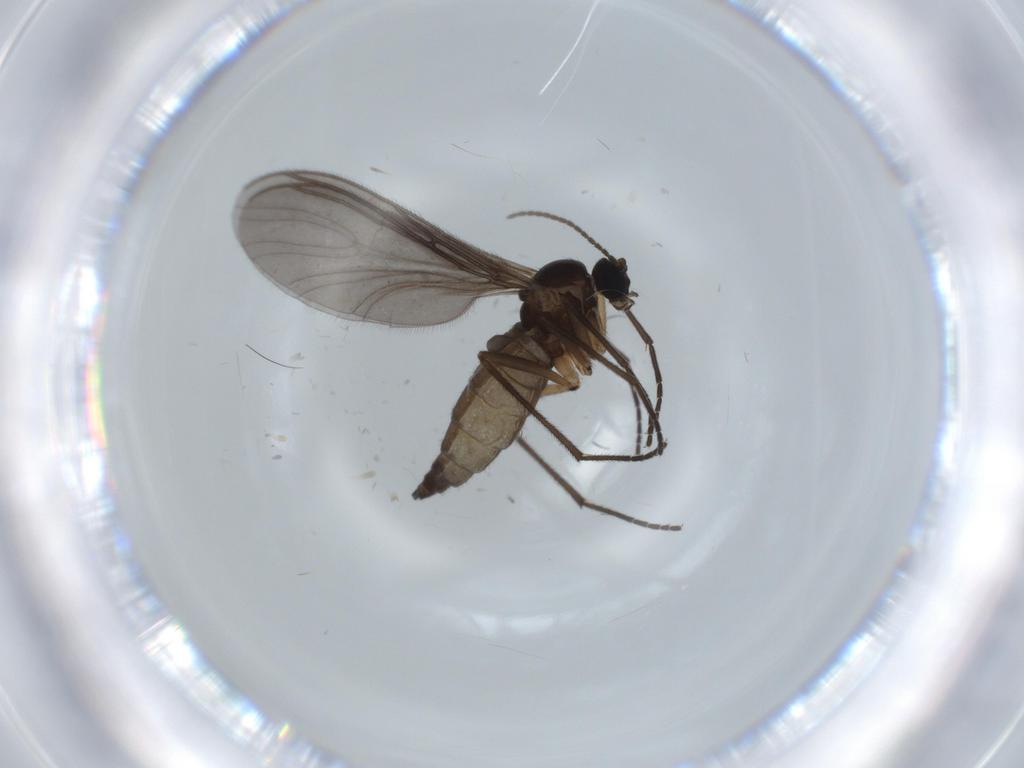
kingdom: Animalia
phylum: Arthropoda
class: Insecta
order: Diptera
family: Sciaridae
